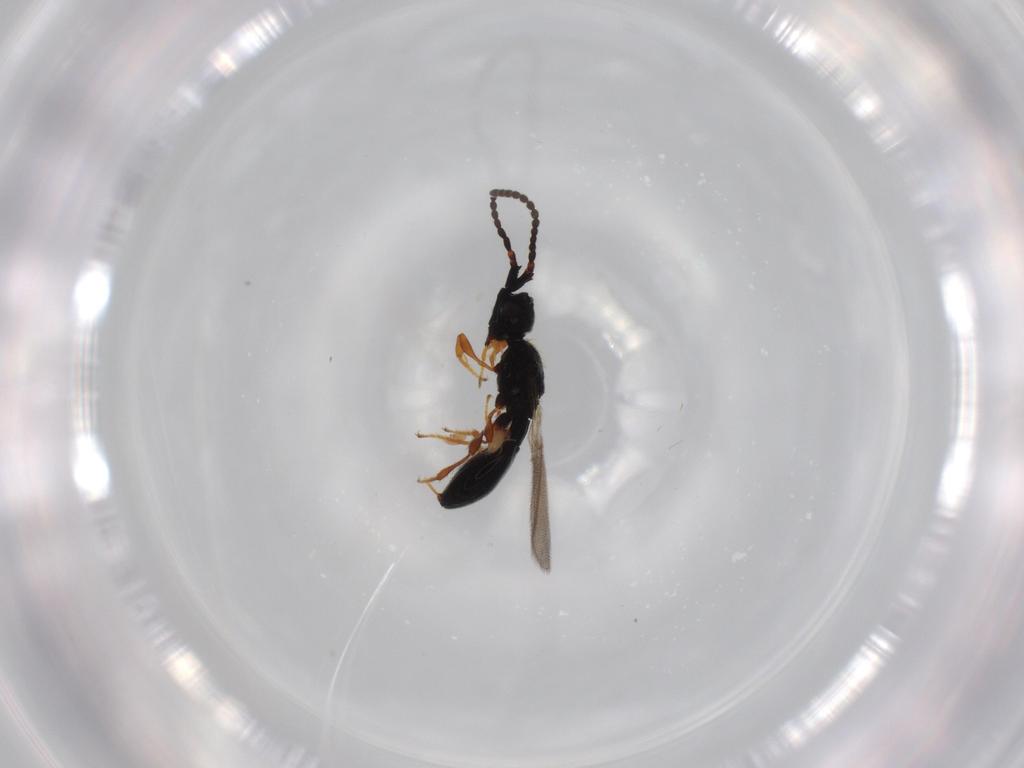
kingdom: Animalia
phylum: Arthropoda
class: Insecta
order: Hymenoptera
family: Diapriidae
